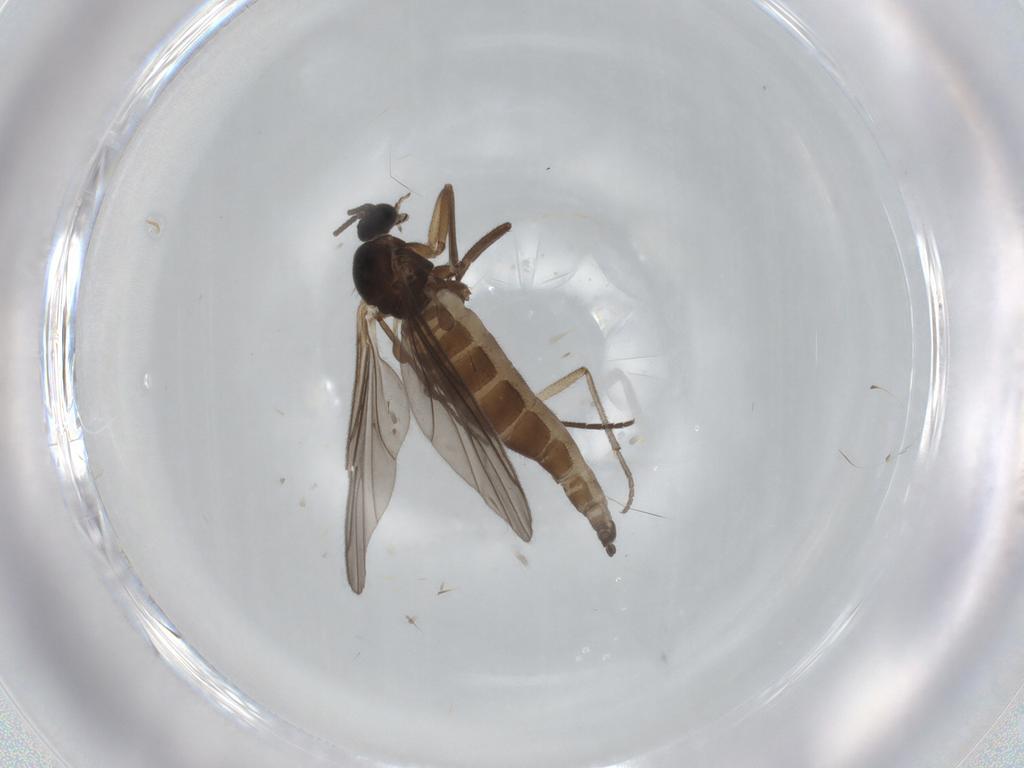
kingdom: Animalia
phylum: Arthropoda
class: Insecta
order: Diptera
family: Sciaridae
